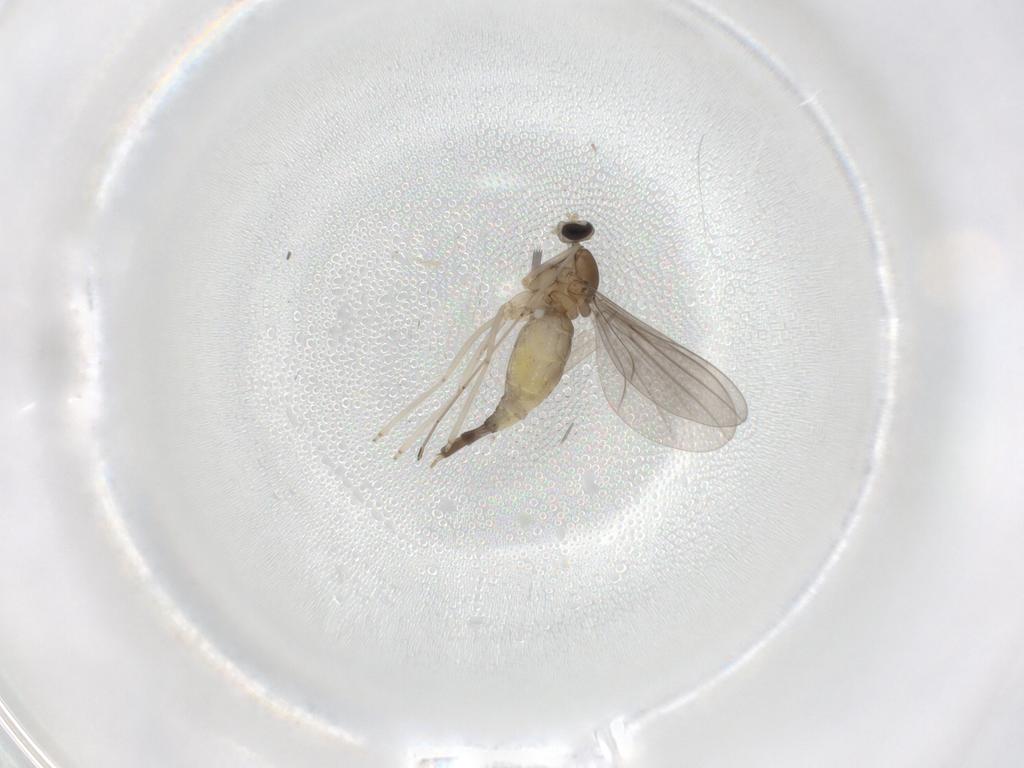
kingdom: Animalia
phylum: Arthropoda
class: Insecta
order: Diptera
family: Cecidomyiidae
